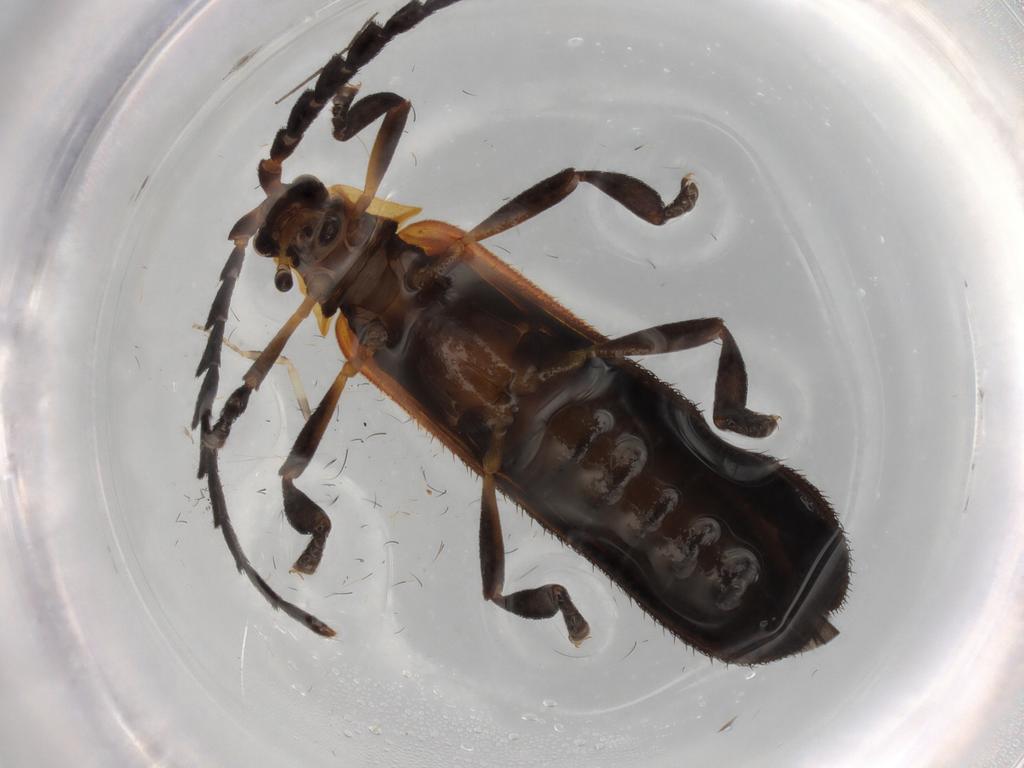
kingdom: Animalia
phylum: Arthropoda
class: Insecta
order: Coleoptera
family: Lycidae
